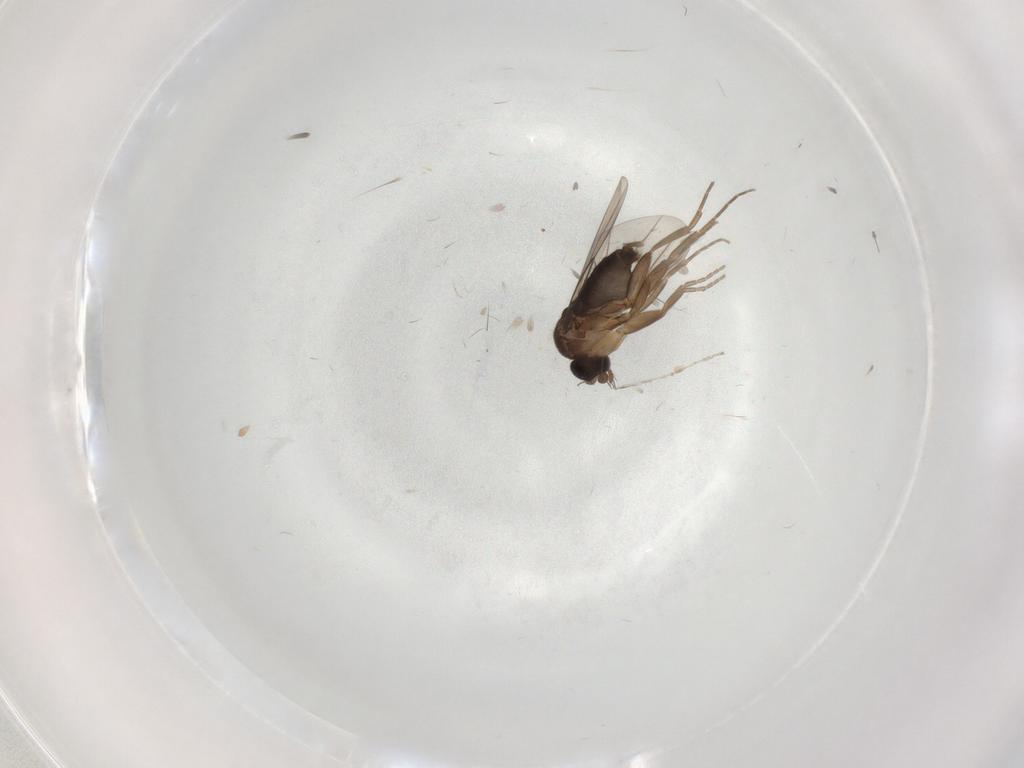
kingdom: Animalia
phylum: Arthropoda
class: Insecta
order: Diptera
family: Phoridae
